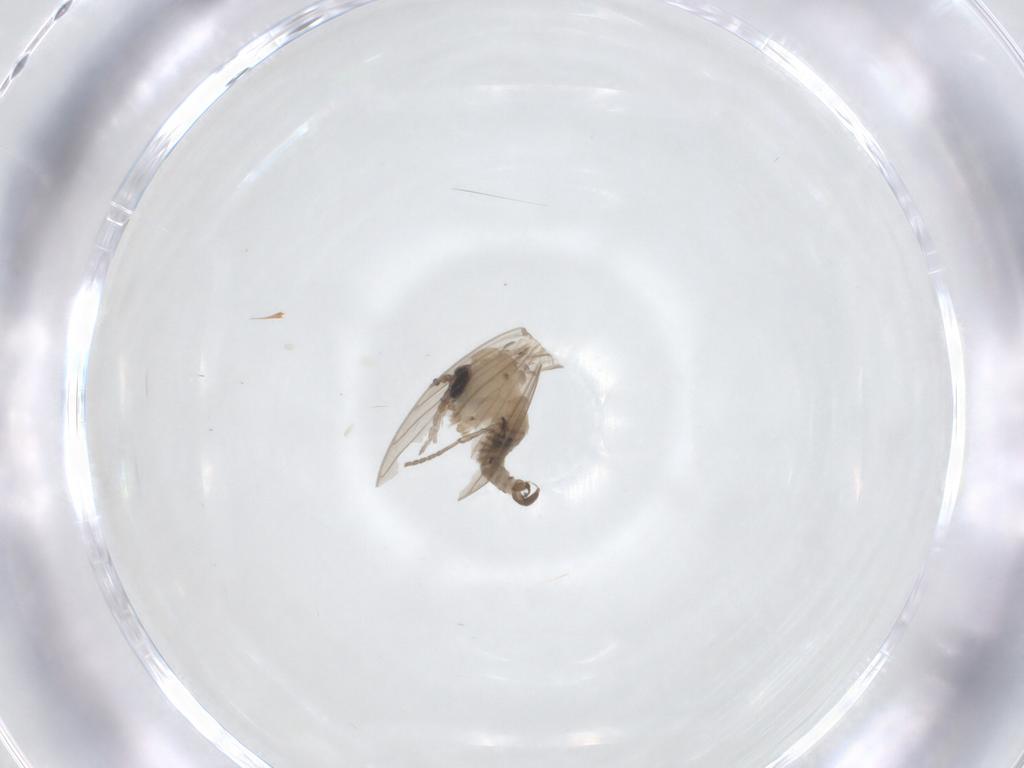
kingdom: Animalia
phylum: Arthropoda
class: Insecta
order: Diptera
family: Psychodidae
